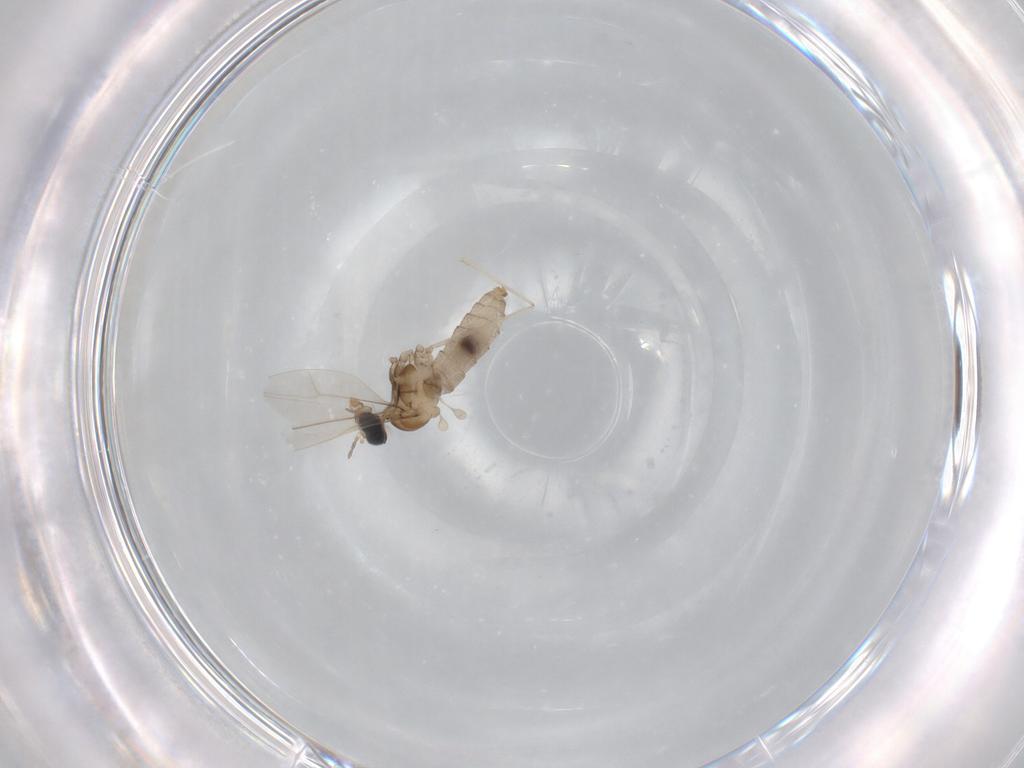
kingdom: Animalia
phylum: Arthropoda
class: Insecta
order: Diptera
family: Phoridae
